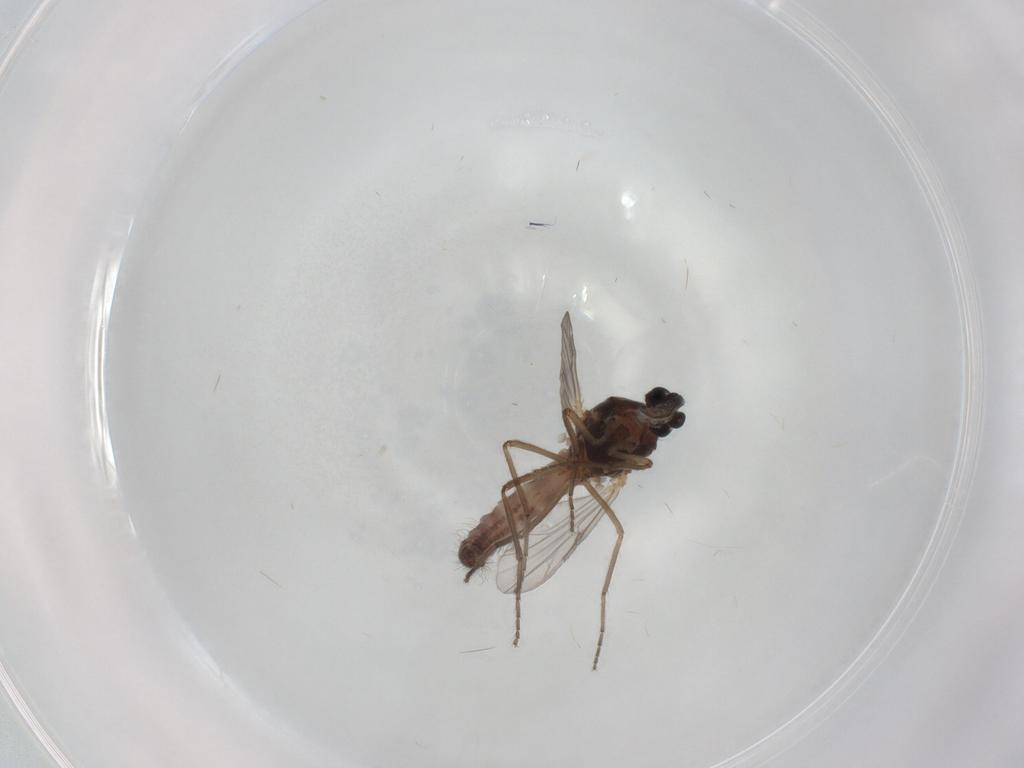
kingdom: Animalia
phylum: Arthropoda
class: Insecta
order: Diptera
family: Ceratopogonidae
